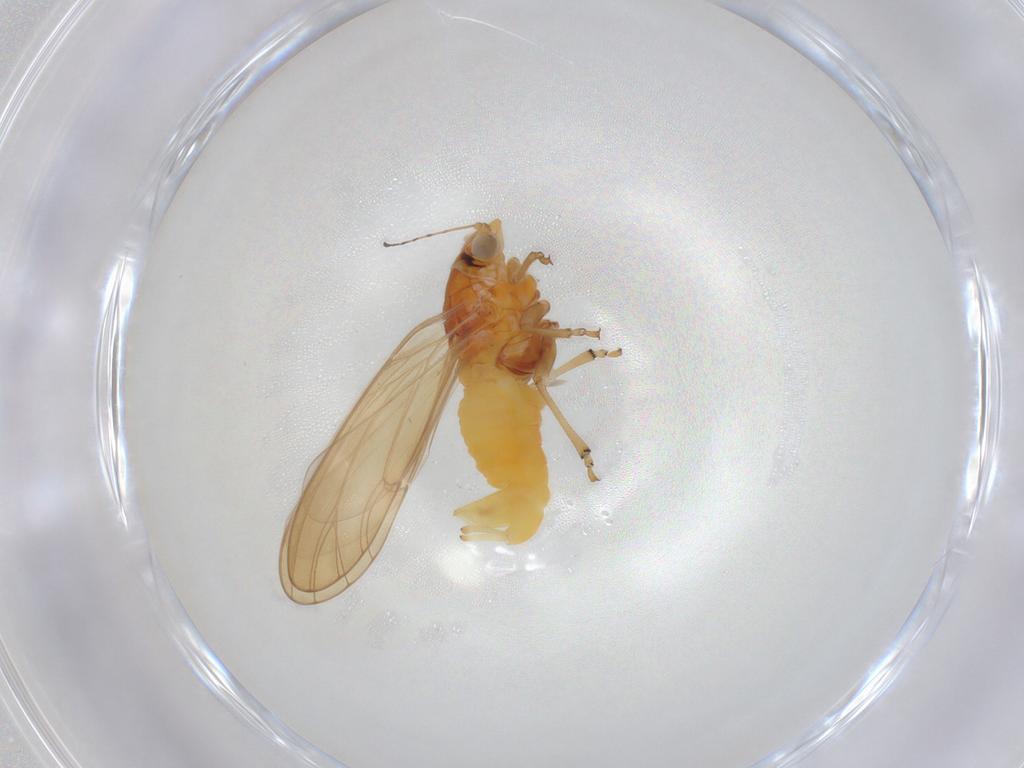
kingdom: Animalia
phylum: Arthropoda
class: Insecta
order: Hemiptera
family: Psylloidea_incertae_sedis
